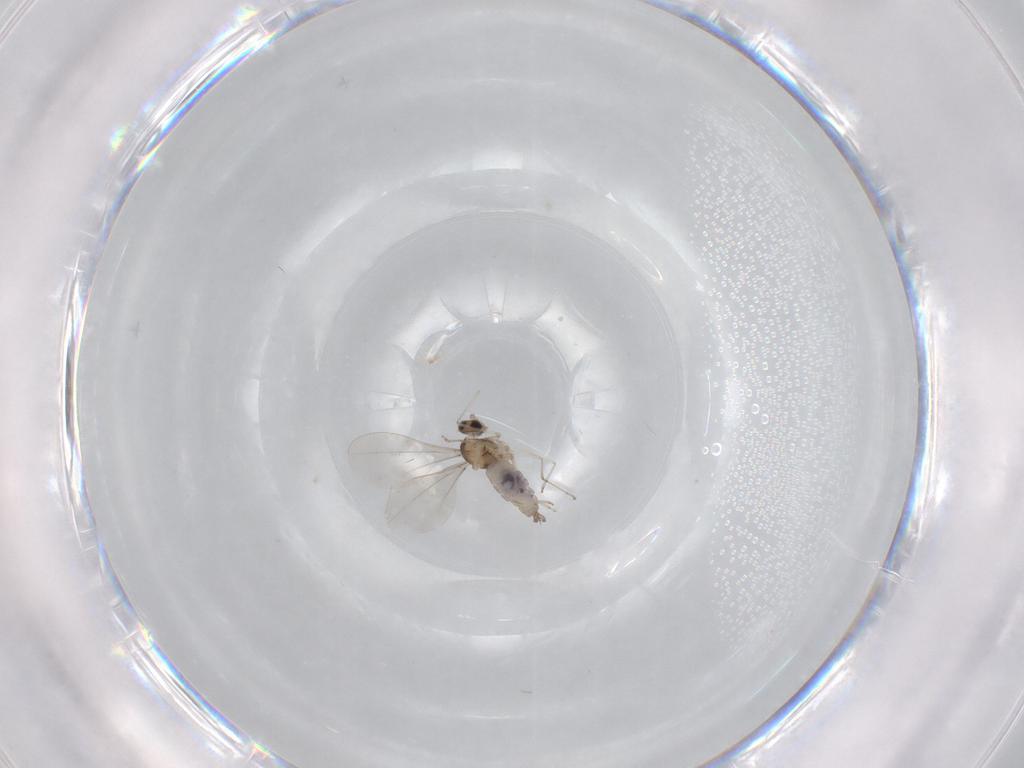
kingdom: Animalia
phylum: Arthropoda
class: Insecta
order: Diptera
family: Cecidomyiidae
